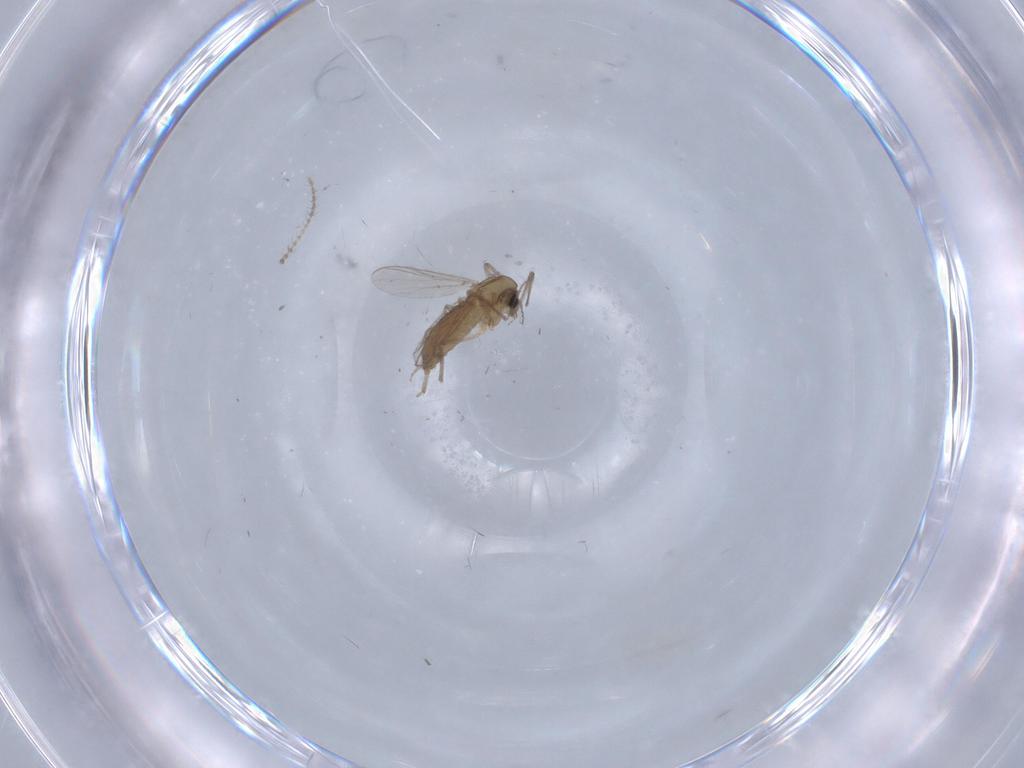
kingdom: Animalia
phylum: Arthropoda
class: Insecta
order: Diptera
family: Chironomidae
